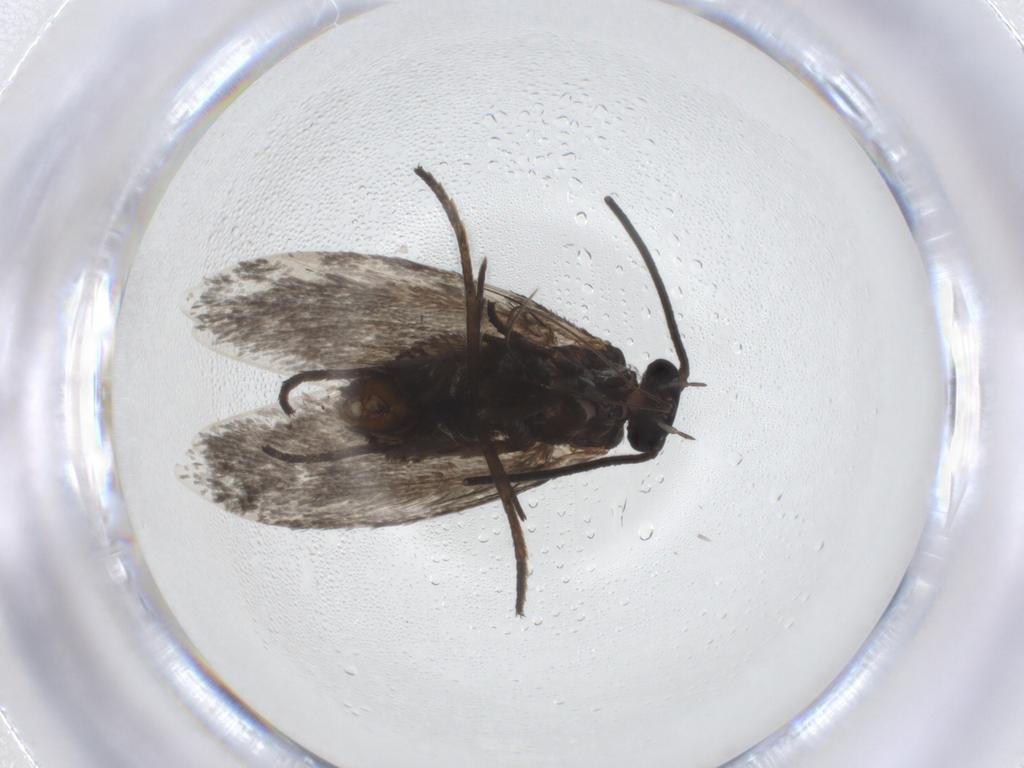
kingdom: Animalia
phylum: Arthropoda
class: Insecta
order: Lepidoptera
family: Adelidae
